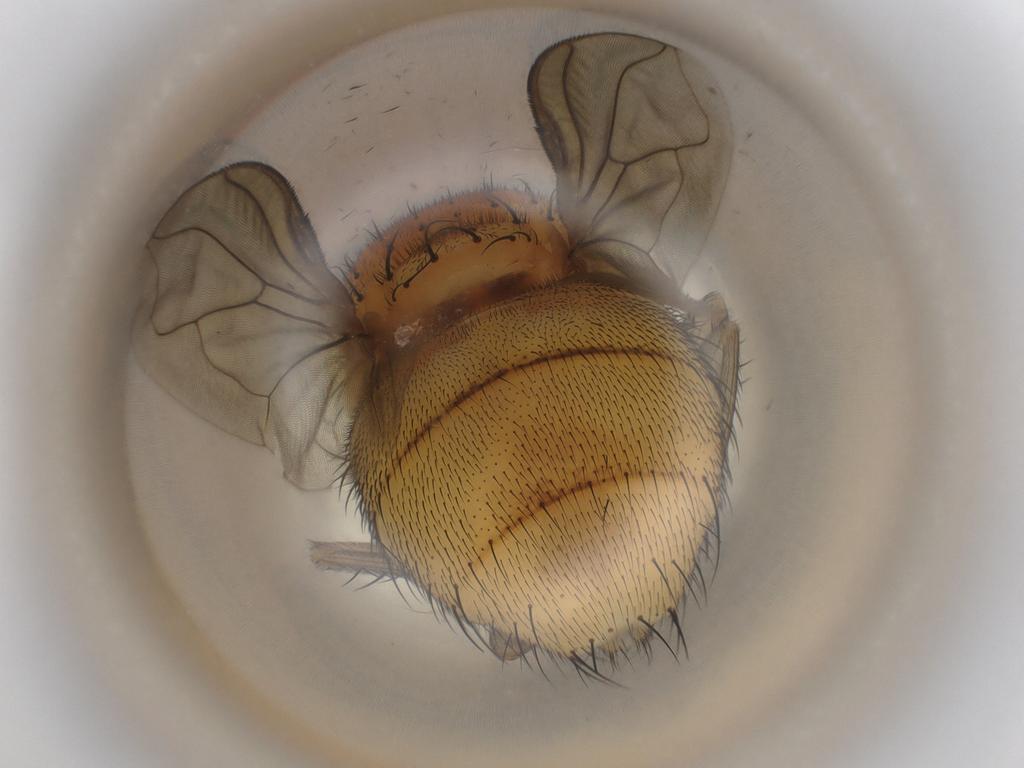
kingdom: Animalia
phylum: Arthropoda
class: Insecta
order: Diptera
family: Calliphoridae
